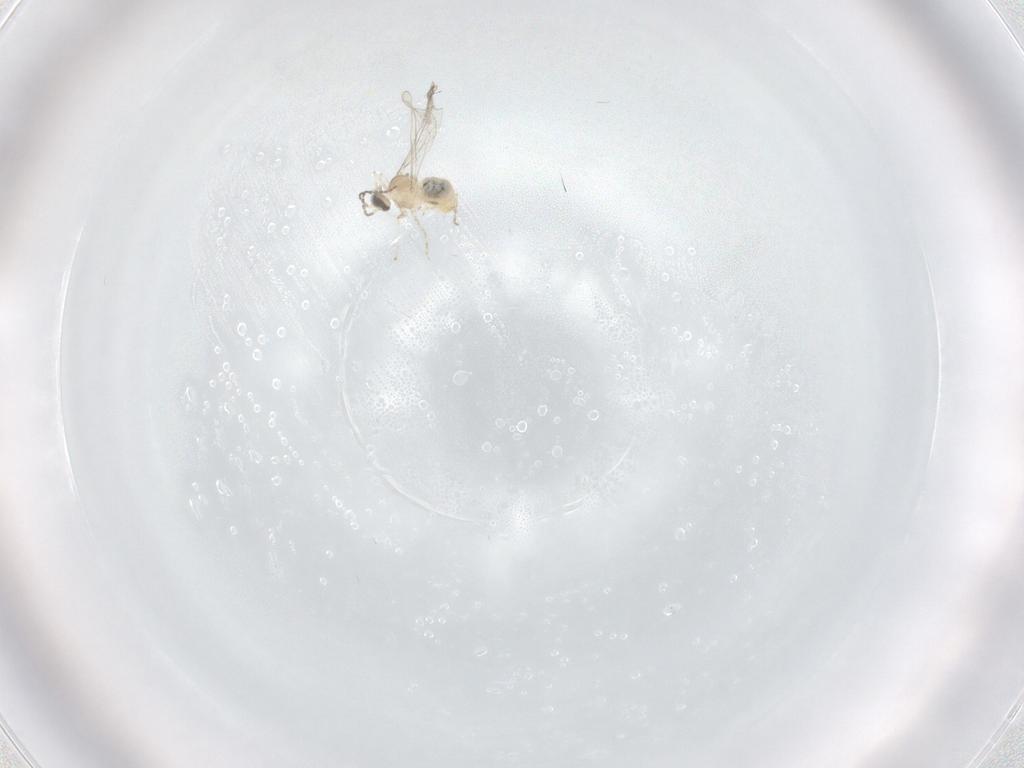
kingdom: Animalia
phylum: Arthropoda
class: Insecta
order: Diptera
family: Cecidomyiidae
